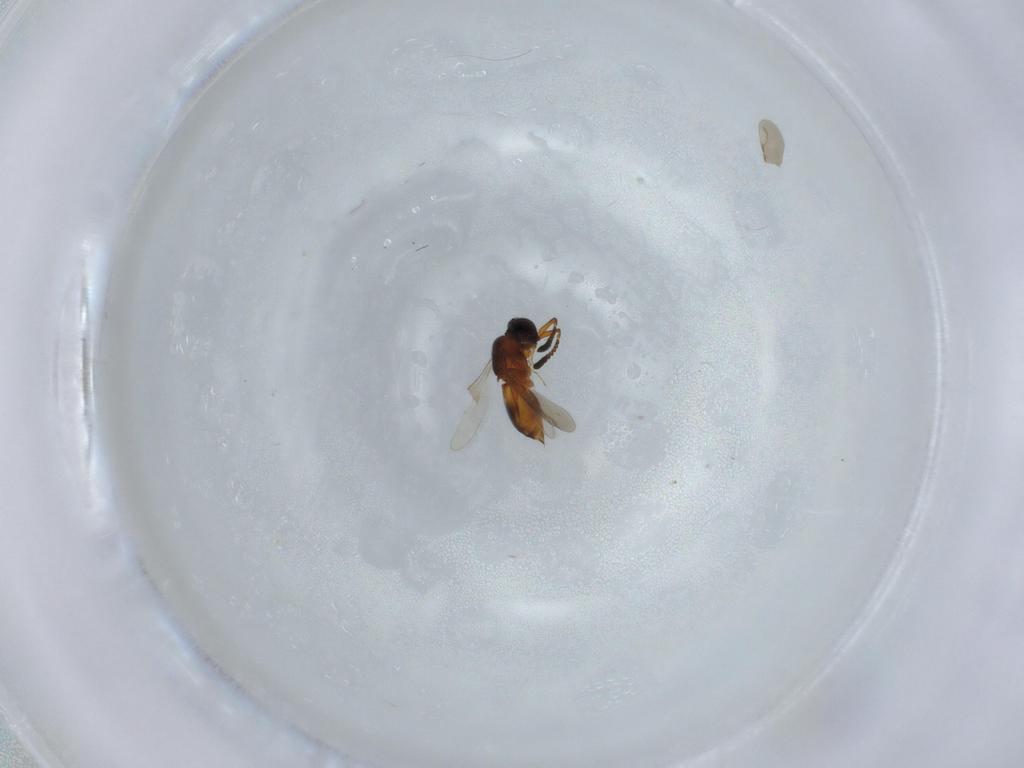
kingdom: Animalia
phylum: Arthropoda
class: Insecta
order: Hymenoptera
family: Ceraphronidae
